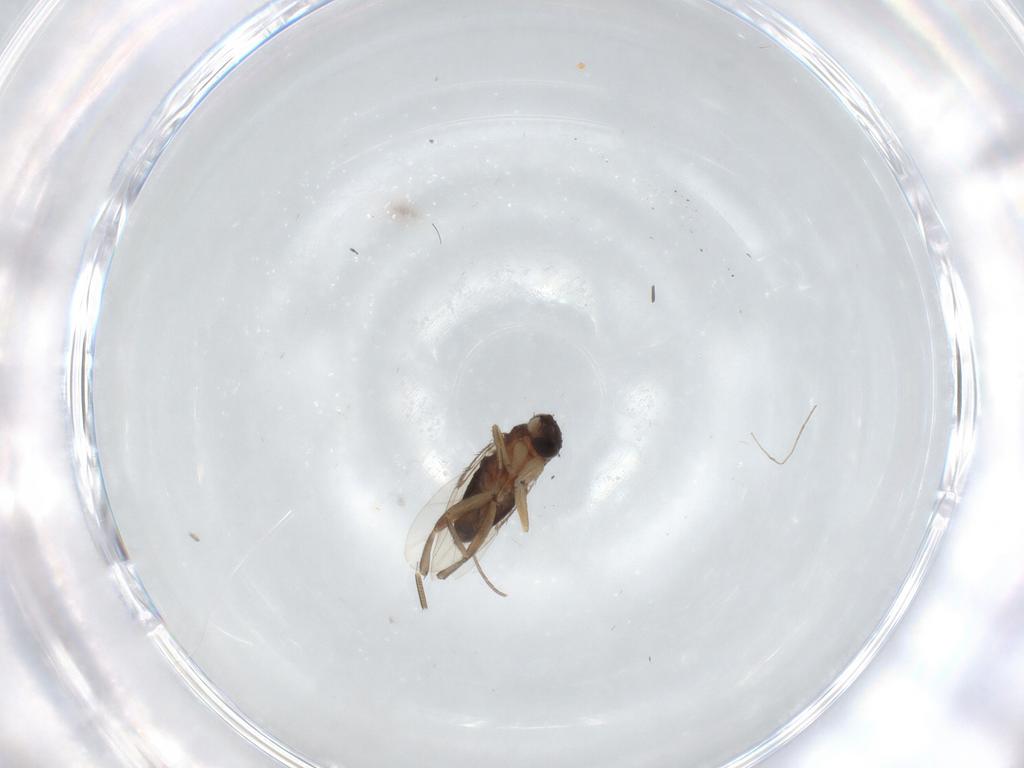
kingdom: Animalia
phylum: Arthropoda
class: Insecta
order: Diptera
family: Phoridae
